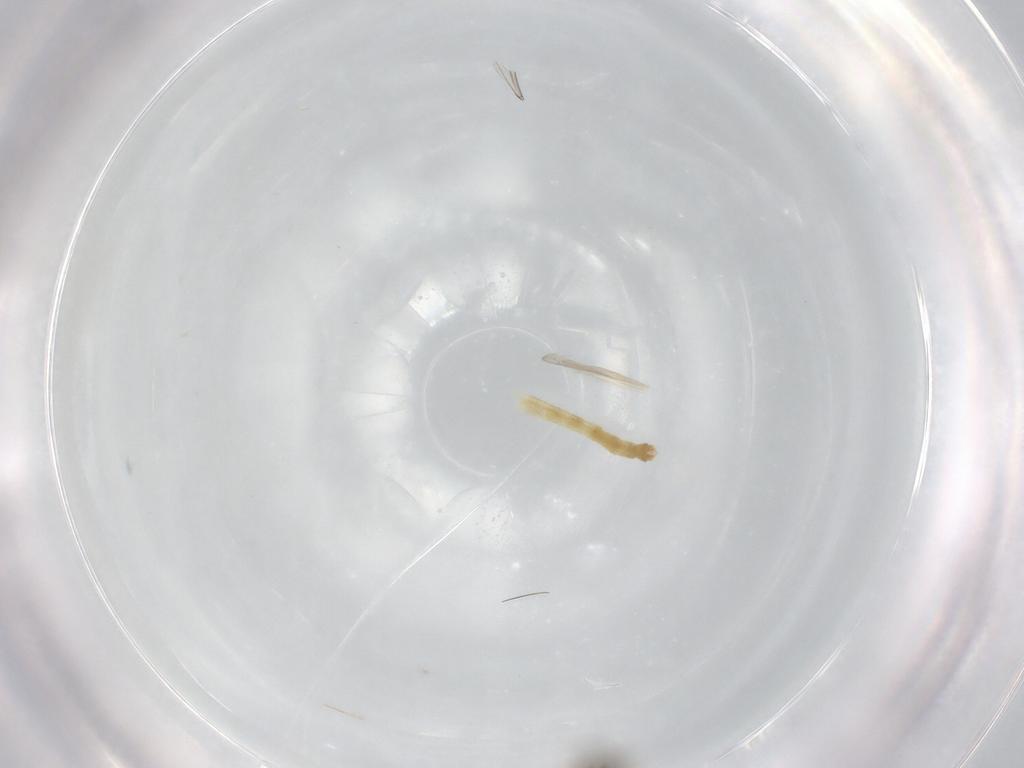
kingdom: Animalia
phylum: Arthropoda
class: Insecta
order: Diptera
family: Chironomidae
